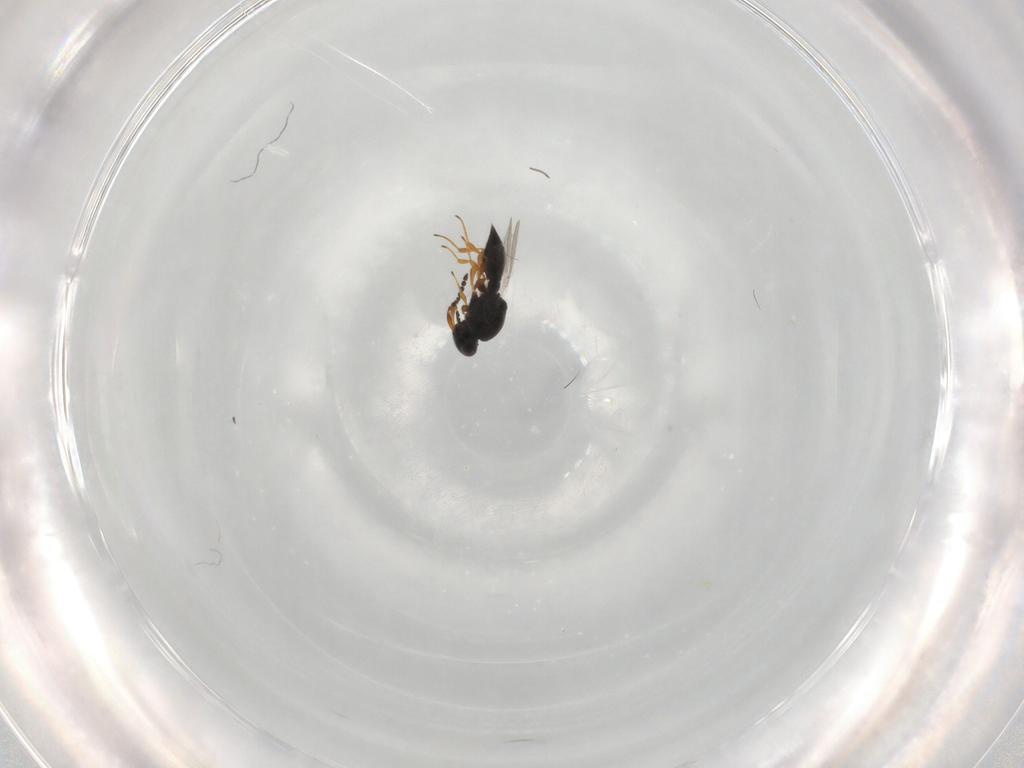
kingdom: Animalia
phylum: Arthropoda
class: Insecta
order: Hymenoptera
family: Platygastridae
